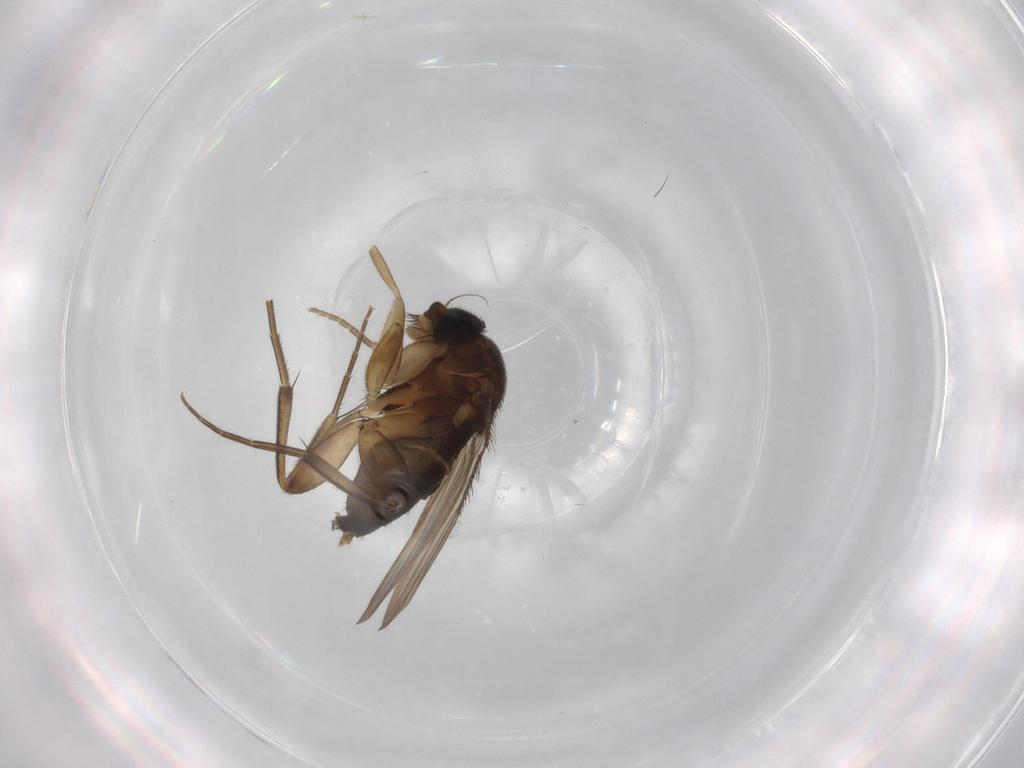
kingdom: Animalia
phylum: Arthropoda
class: Insecta
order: Diptera
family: Phoridae
